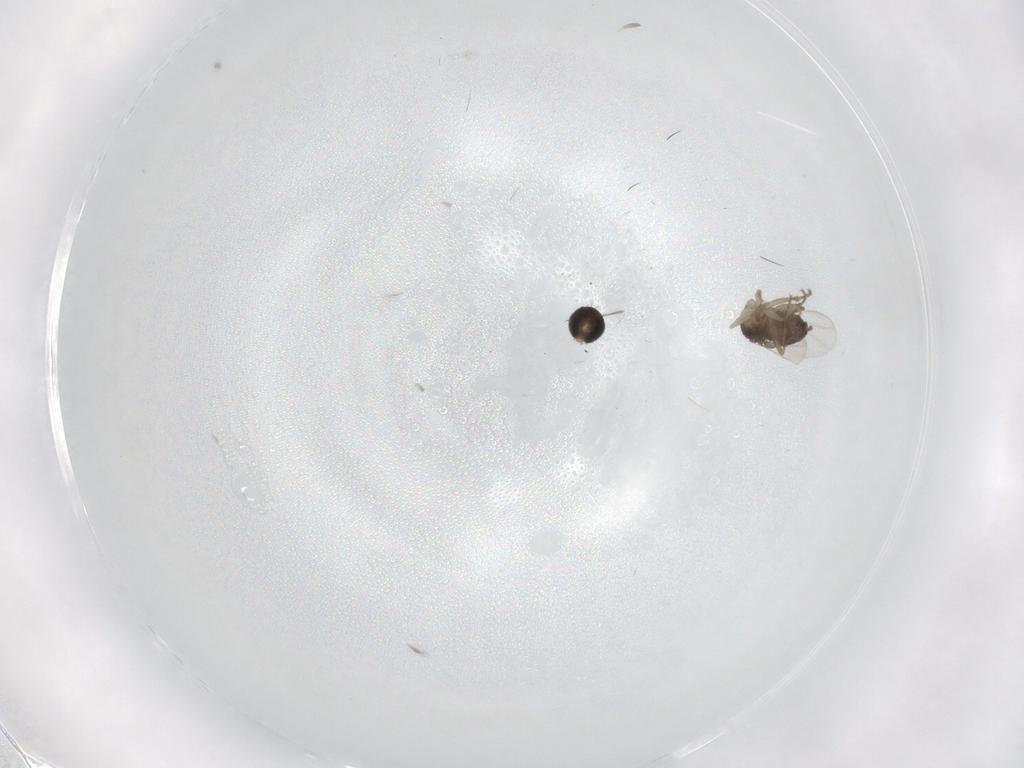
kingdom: Animalia
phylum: Arthropoda
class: Insecta
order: Diptera
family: Phoridae
